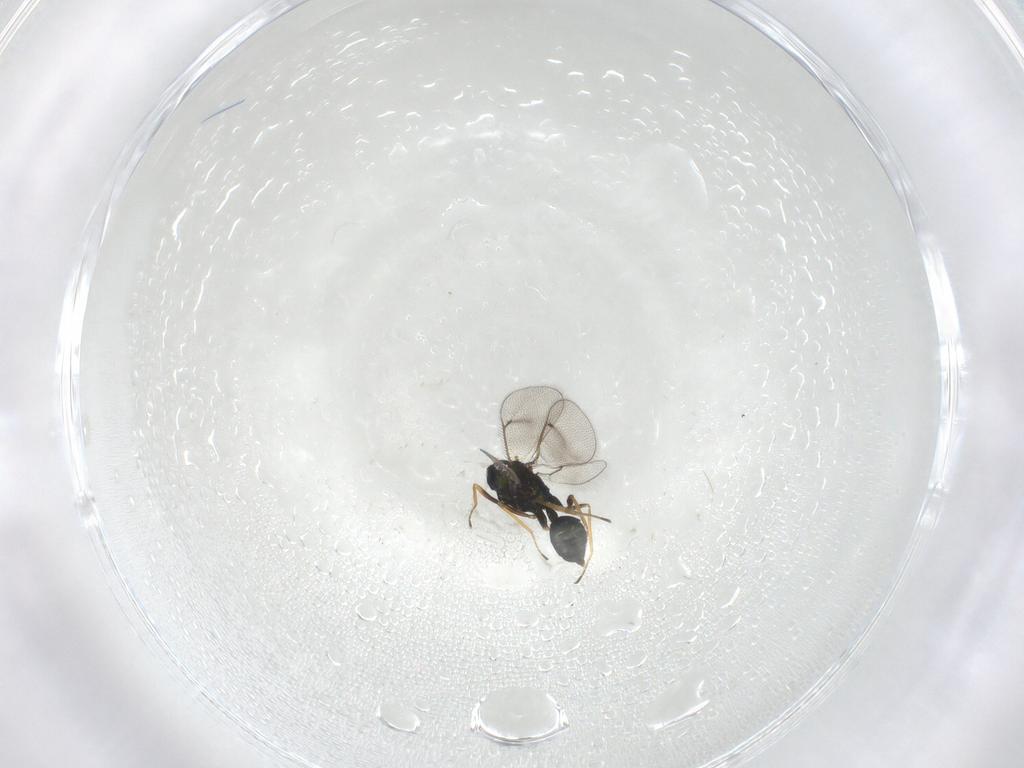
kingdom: Animalia
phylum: Arthropoda
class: Insecta
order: Hymenoptera
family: Eulophidae
